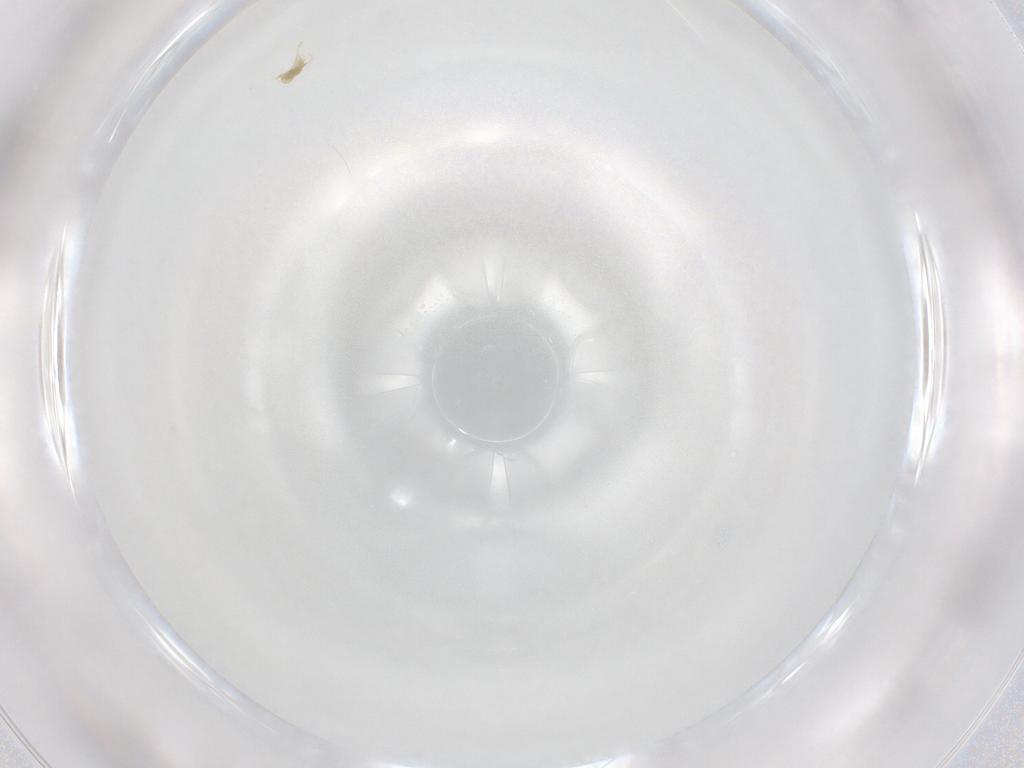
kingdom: Animalia
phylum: Arthropoda
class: Arachnida
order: Trombidiformes
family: Eupodidae
